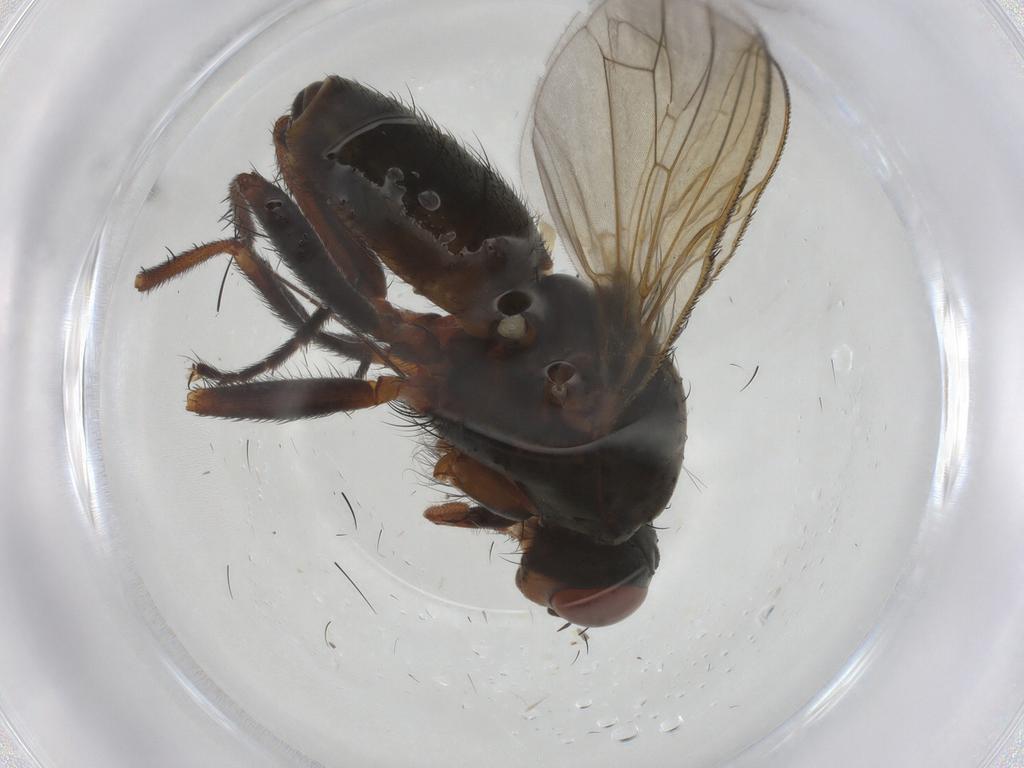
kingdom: Animalia
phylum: Arthropoda
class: Insecta
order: Diptera
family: Anthomyiidae
